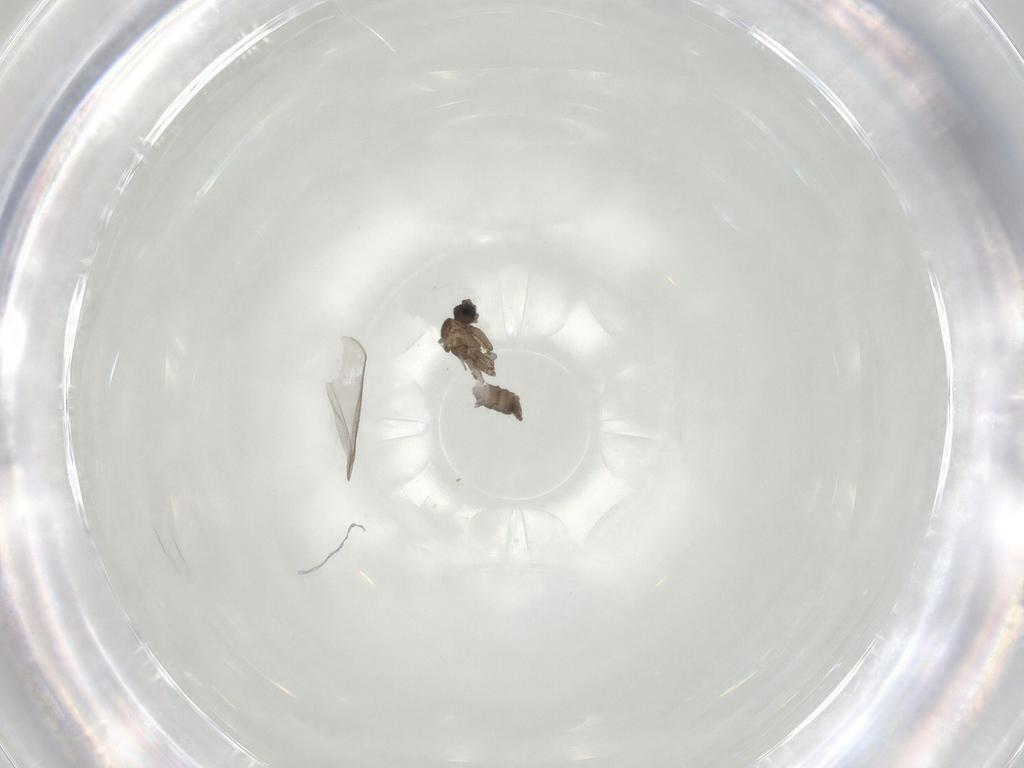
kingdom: Animalia
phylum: Arthropoda
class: Insecta
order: Diptera
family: Sciaridae
